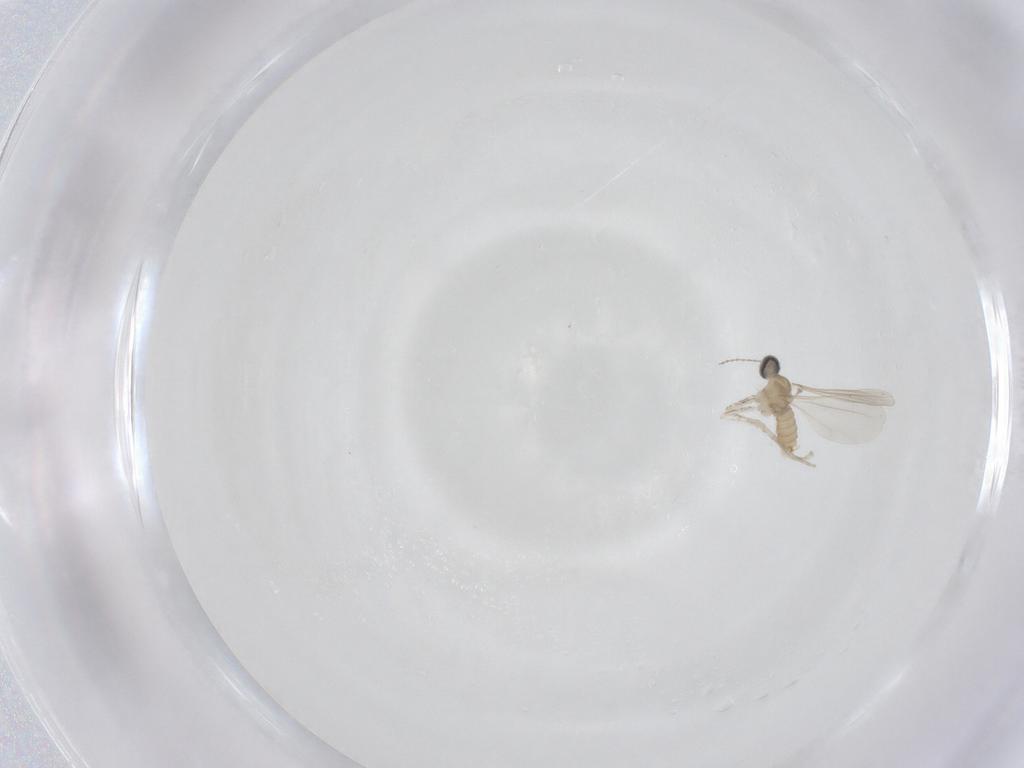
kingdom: Animalia
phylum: Arthropoda
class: Insecta
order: Diptera
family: Cecidomyiidae
